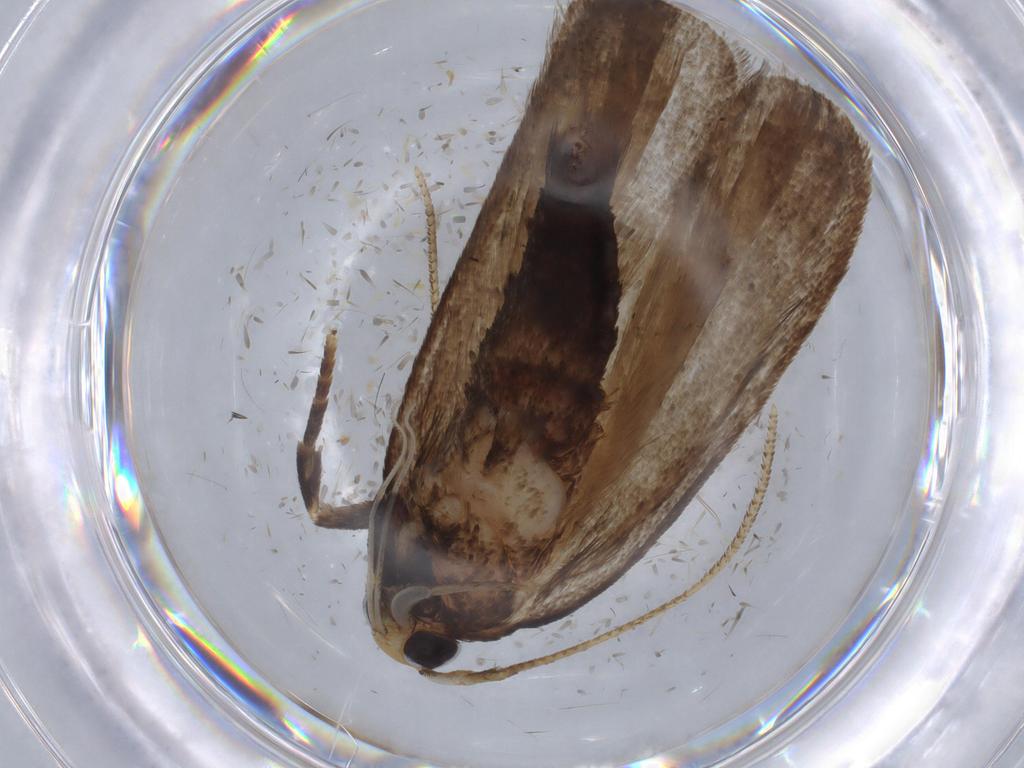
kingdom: Animalia
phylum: Arthropoda
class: Insecta
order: Lepidoptera
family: Autostichidae
